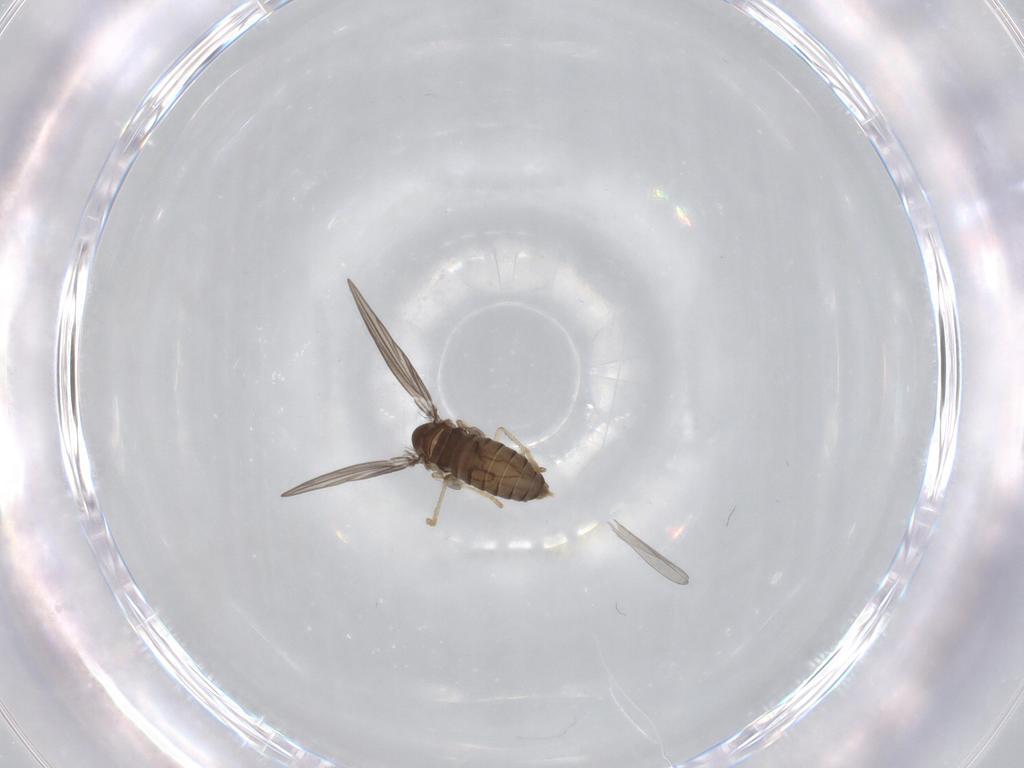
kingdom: Animalia
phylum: Arthropoda
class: Insecta
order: Diptera
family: Psychodidae
